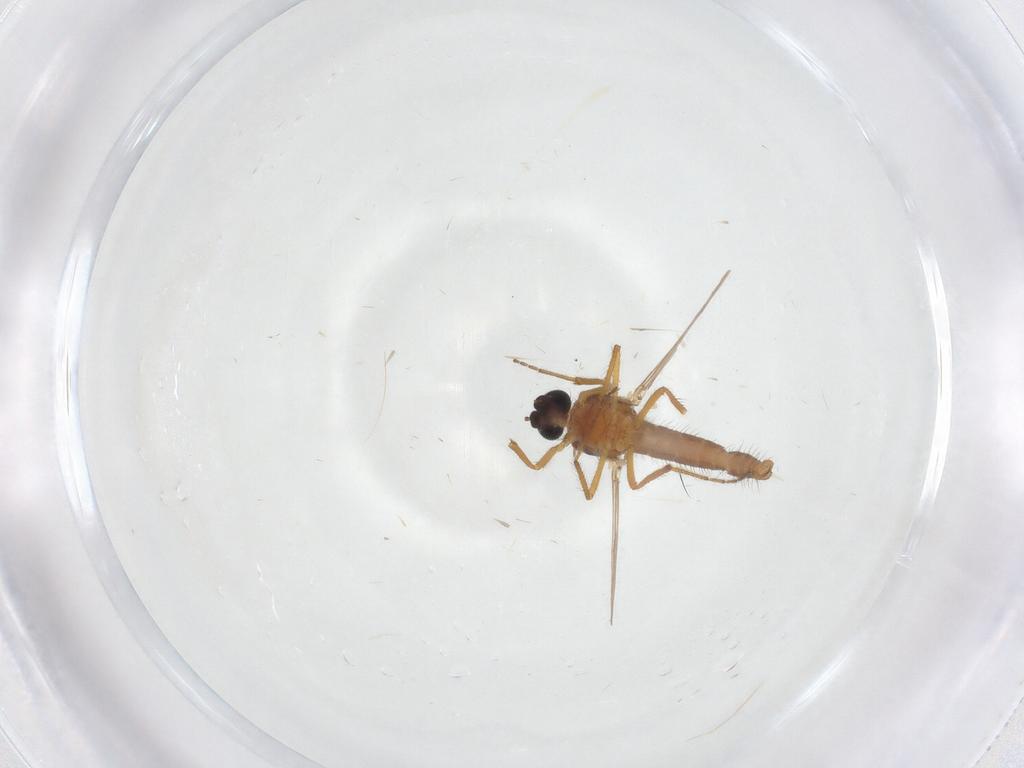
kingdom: Animalia
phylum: Arthropoda
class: Insecta
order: Diptera
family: Ceratopogonidae
